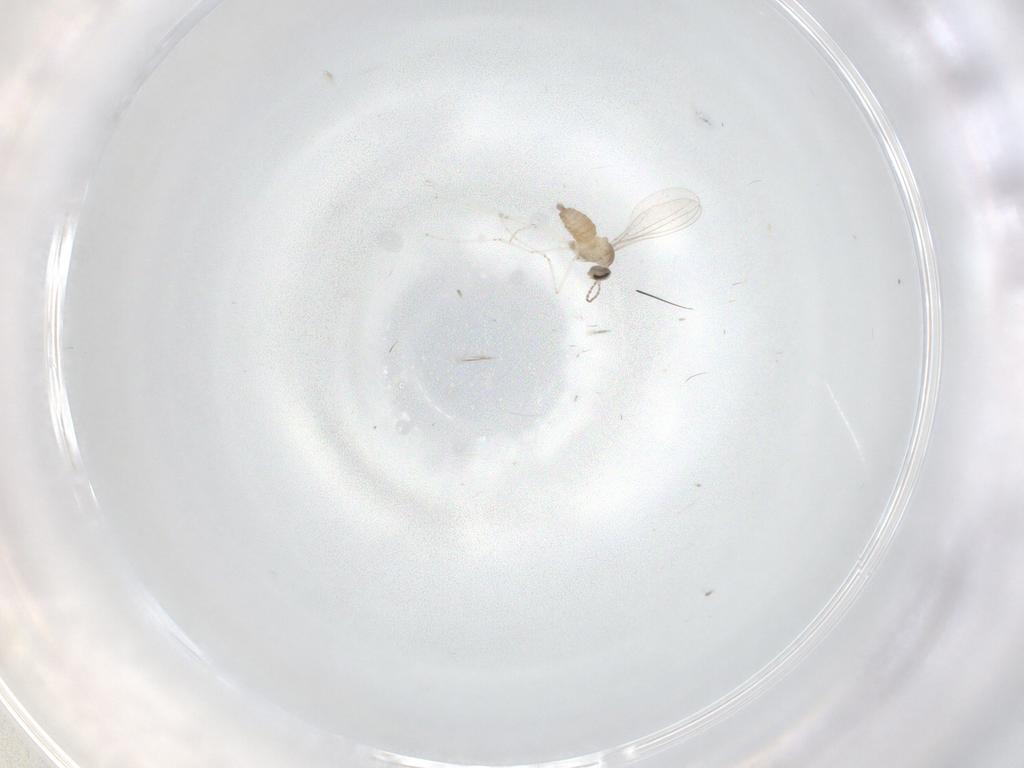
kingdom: Animalia
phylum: Arthropoda
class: Insecta
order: Diptera
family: Cecidomyiidae
